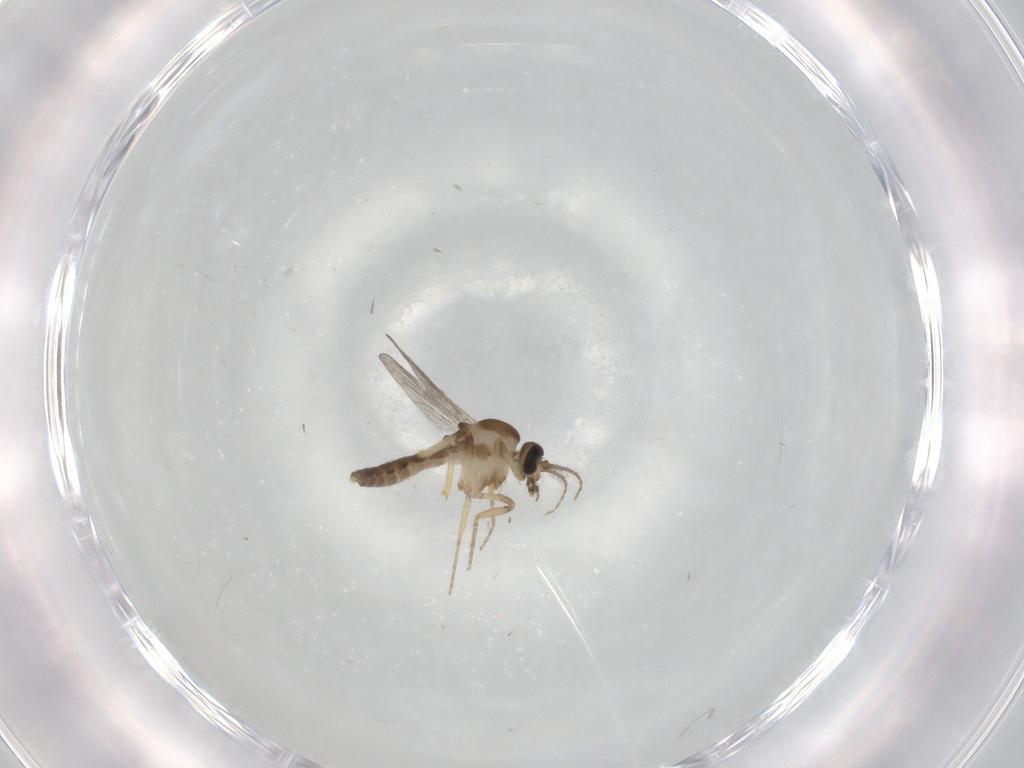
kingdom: Animalia
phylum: Arthropoda
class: Insecta
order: Diptera
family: Ceratopogonidae
